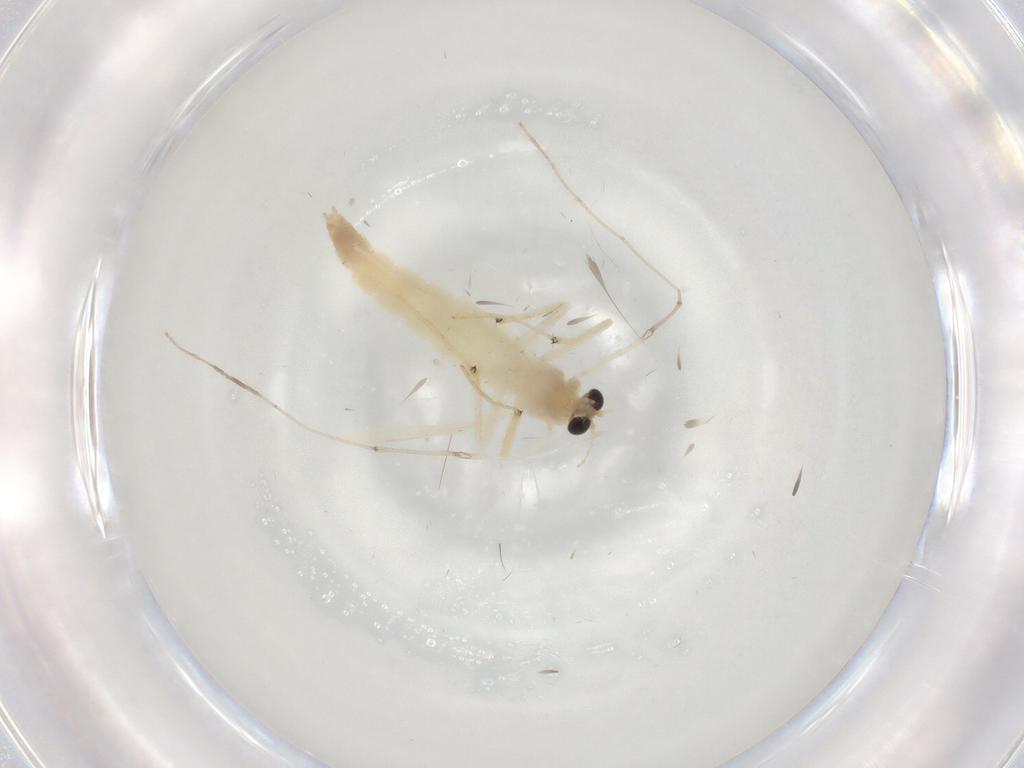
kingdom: Animalia
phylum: Arthropoda
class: Insecta
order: Diptera
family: Chironomidae
